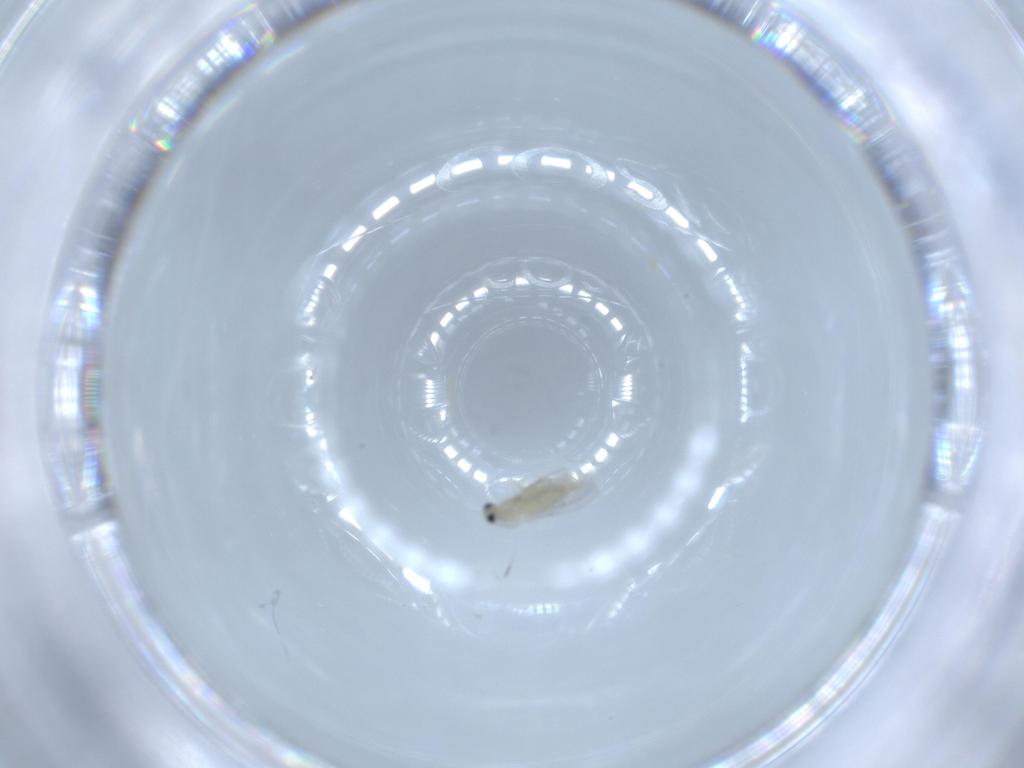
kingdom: Animalia
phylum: Arthropoda
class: Insecta
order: Diptera
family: Cecidomyiidae
